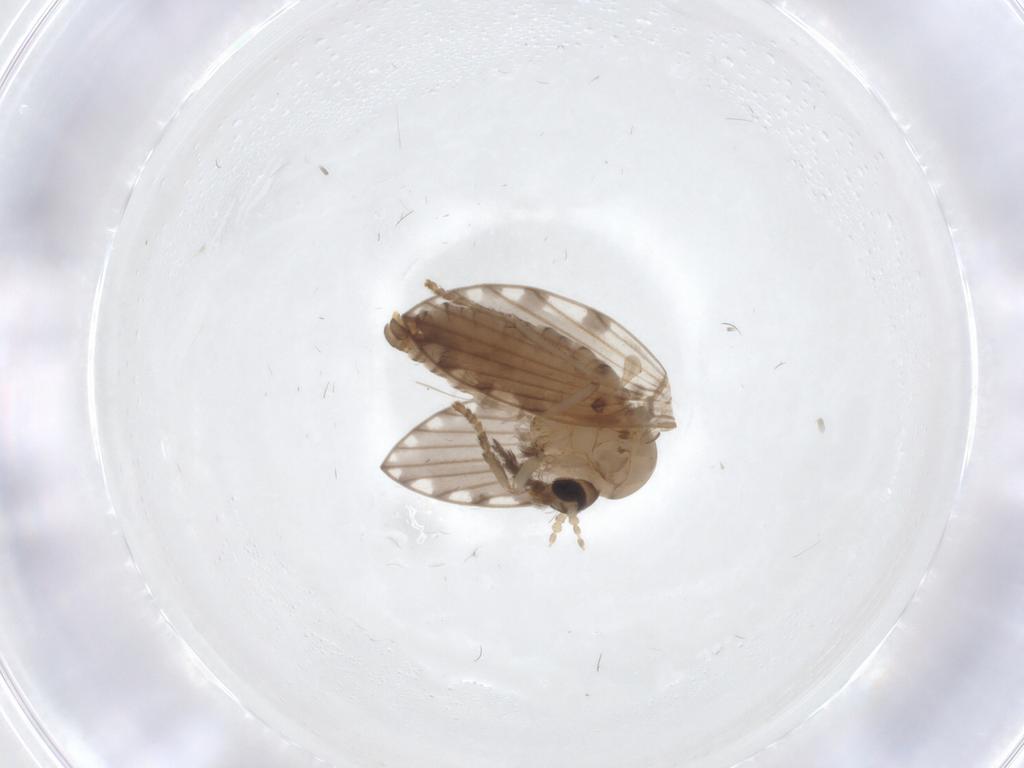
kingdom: Animalia
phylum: Arthropoda
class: Insecta
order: Diptera
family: Psychodidae
